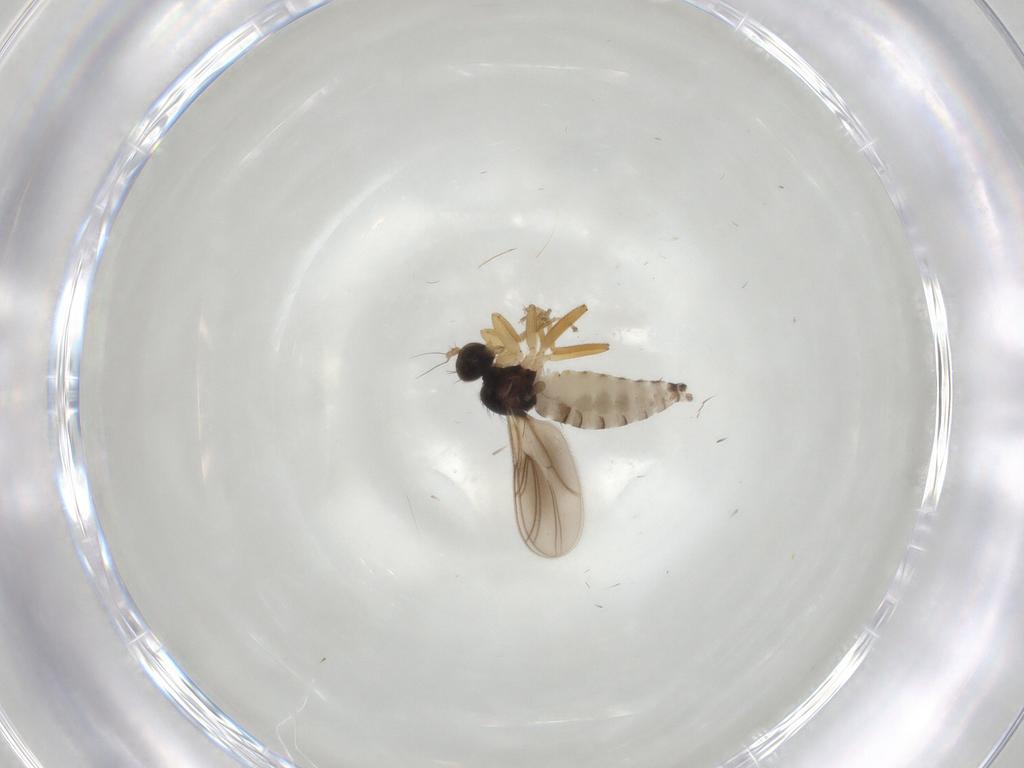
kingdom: Animalia
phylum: Arthropoda
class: Insecta
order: Diptera
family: Hybotidae
